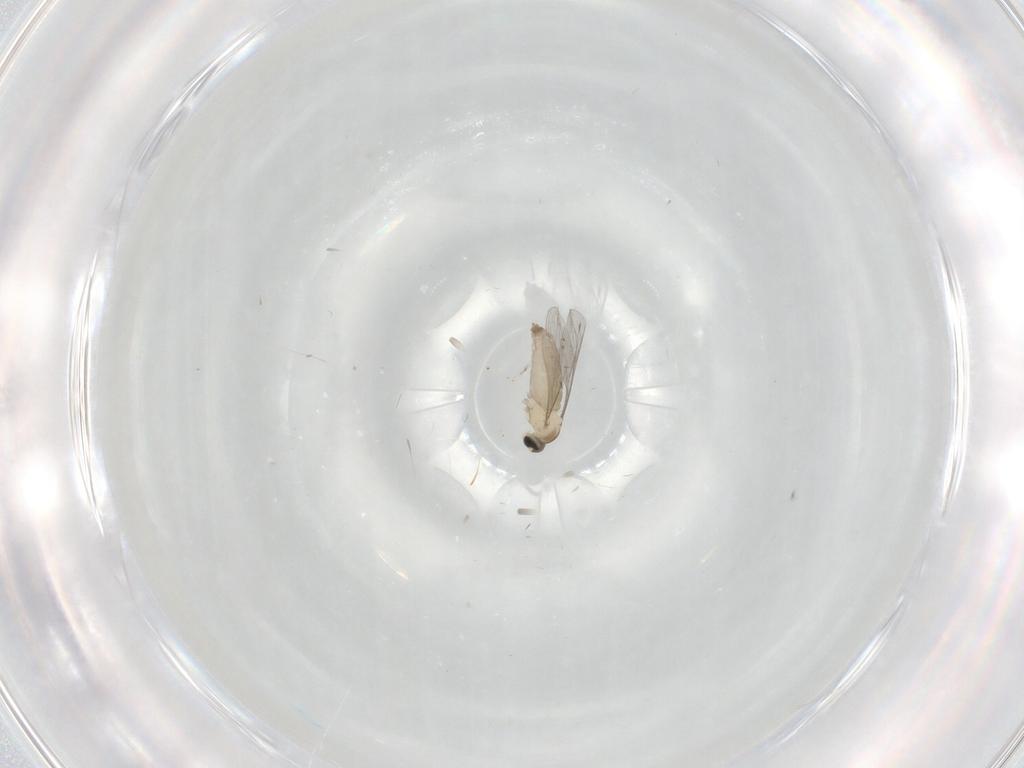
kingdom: Animalia
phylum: Arthropoda
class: Insecta
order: Diptera
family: Cecidomyiidae
